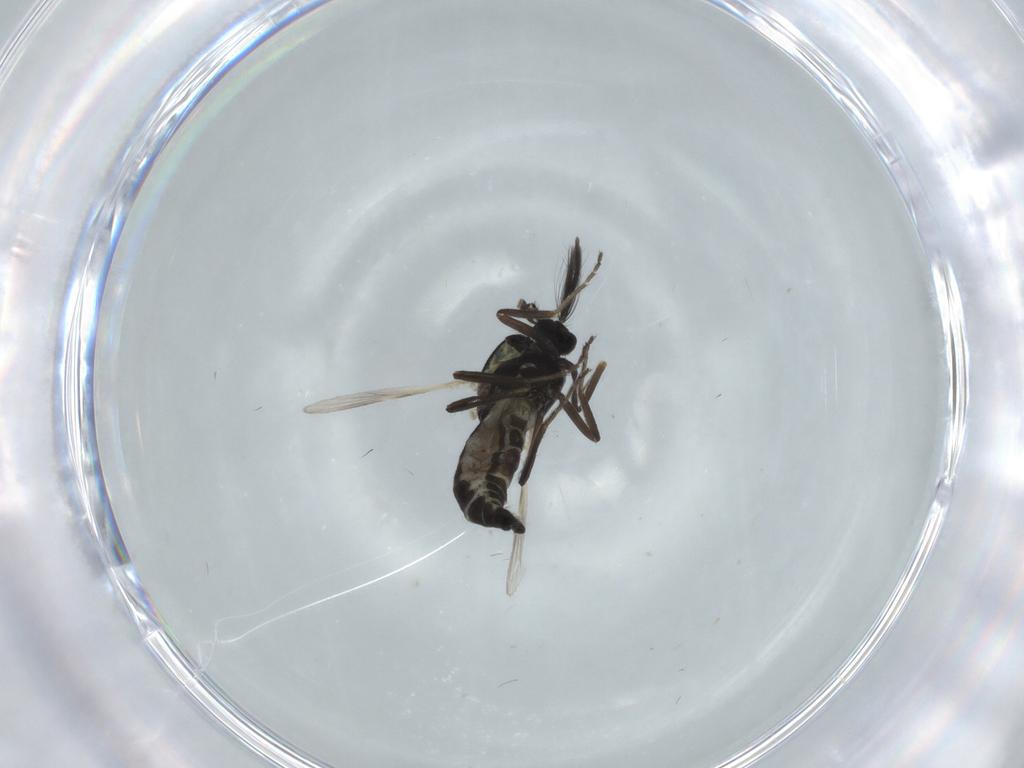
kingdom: Animalia
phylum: Arthropoda
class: Insecta
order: Diptera
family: Ceratopogonidae
